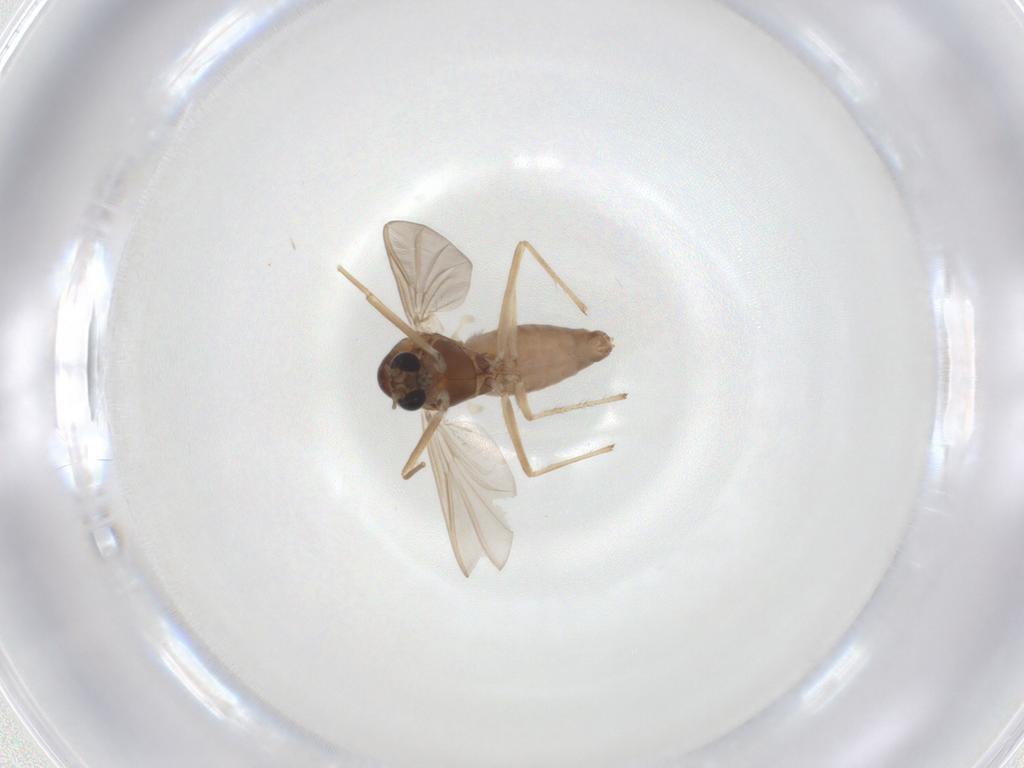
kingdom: Animalia
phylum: Arthropoda
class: Insecta
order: Diptera
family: Chloropidae
